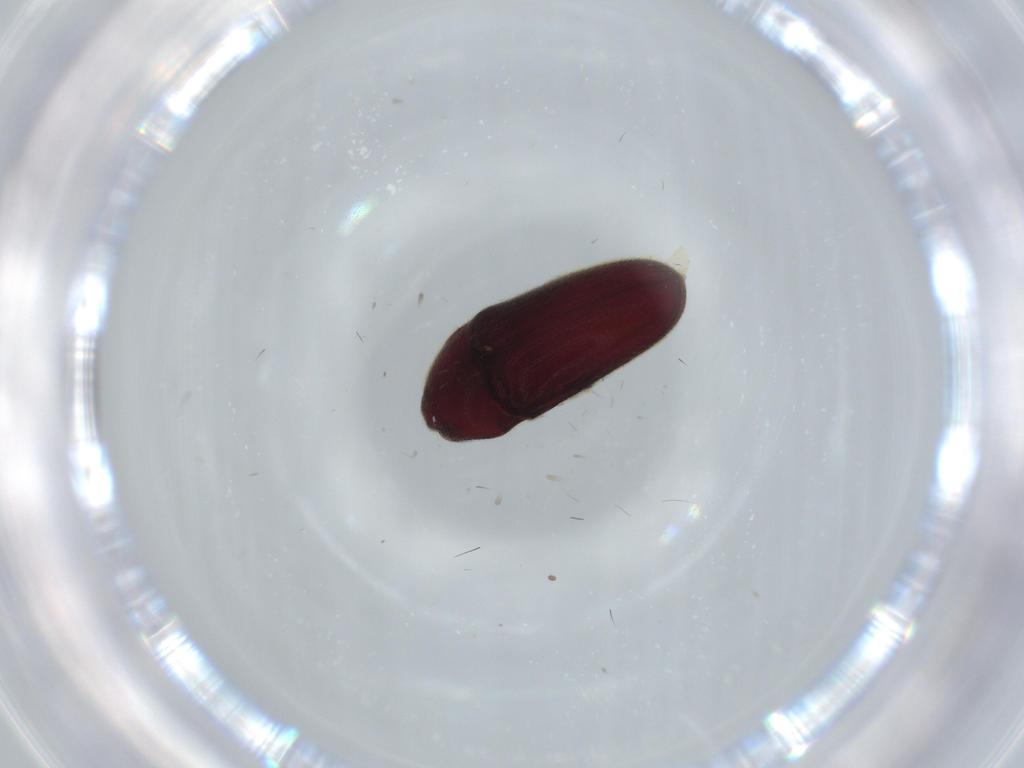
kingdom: Animalia
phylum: Arthropoda
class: Insecta
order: Coleoptera
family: Throscidae
